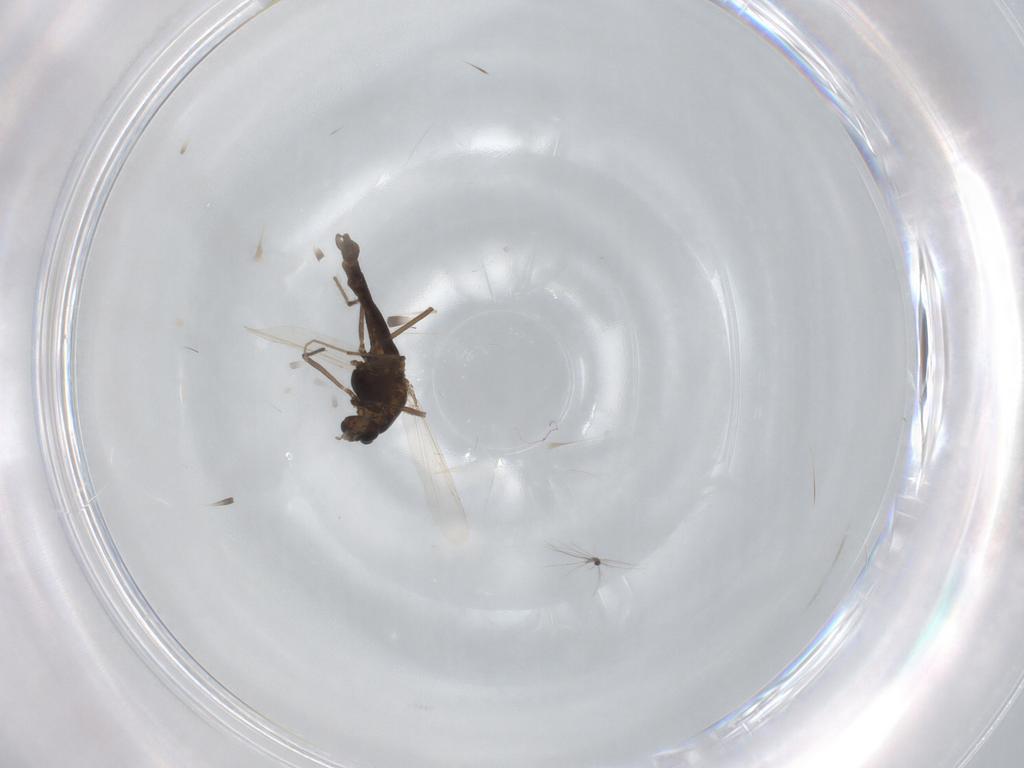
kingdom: Animalia
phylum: Arthropoda
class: Insecta
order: Diptera
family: Chironomidae
